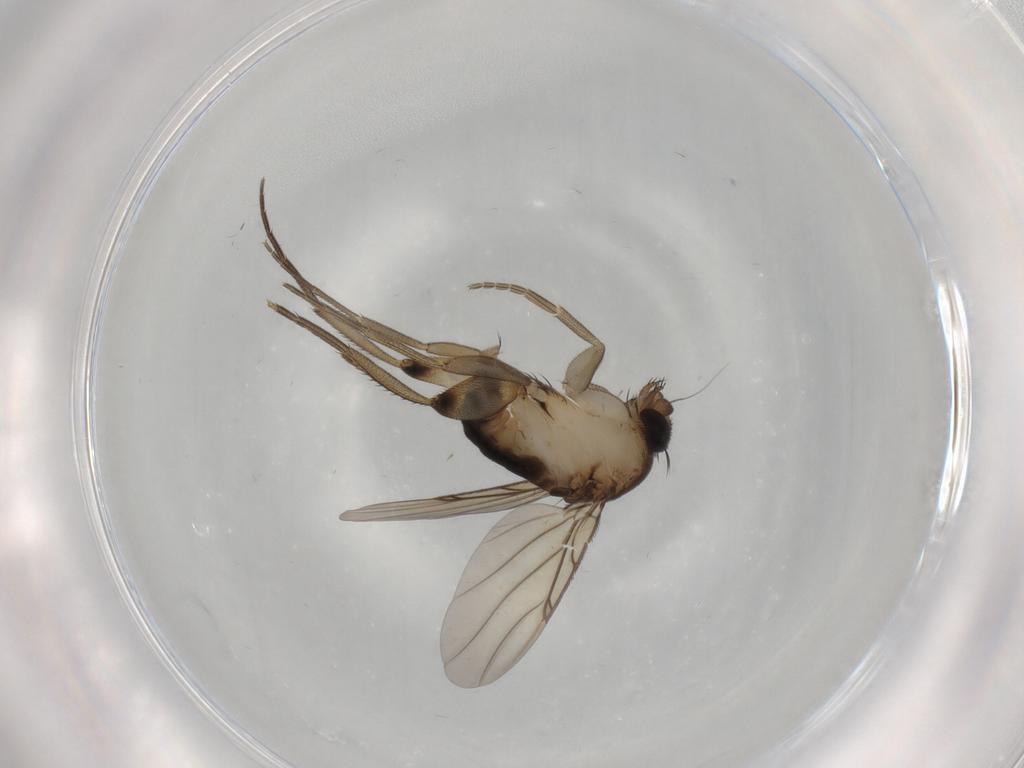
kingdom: Animalia
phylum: Arthropoda
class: Insecta
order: Diptera
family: Phoridae
